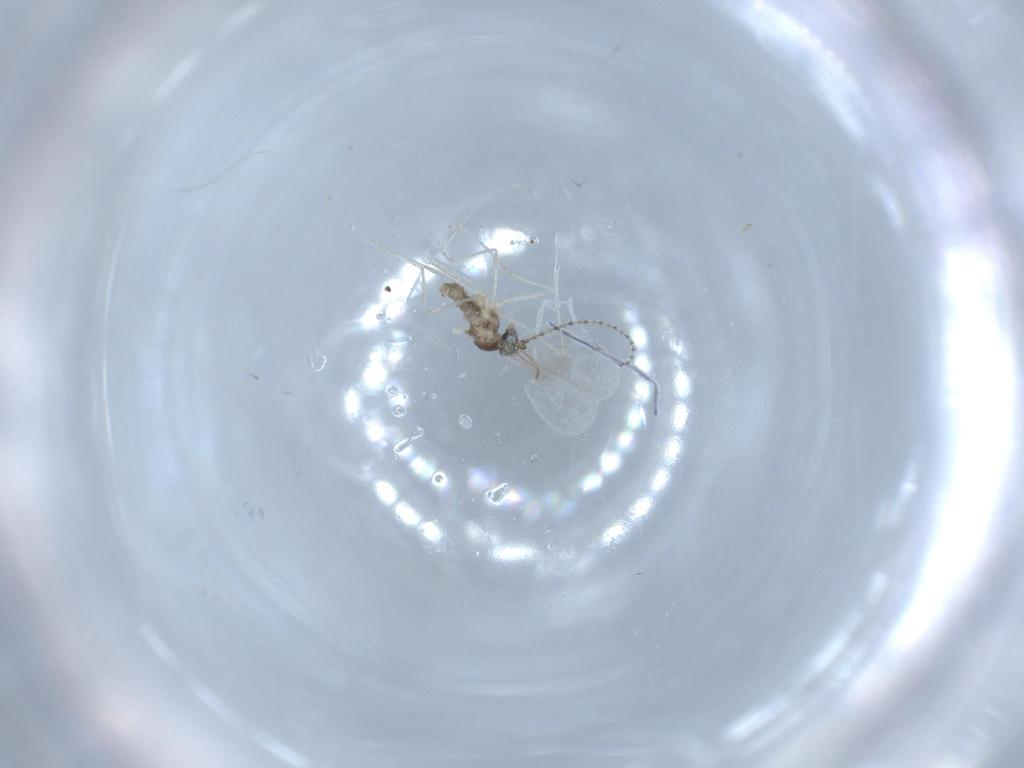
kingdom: Animalia
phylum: Arthropoda
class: Insecta
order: Diptera
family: Cecidomyiidae
